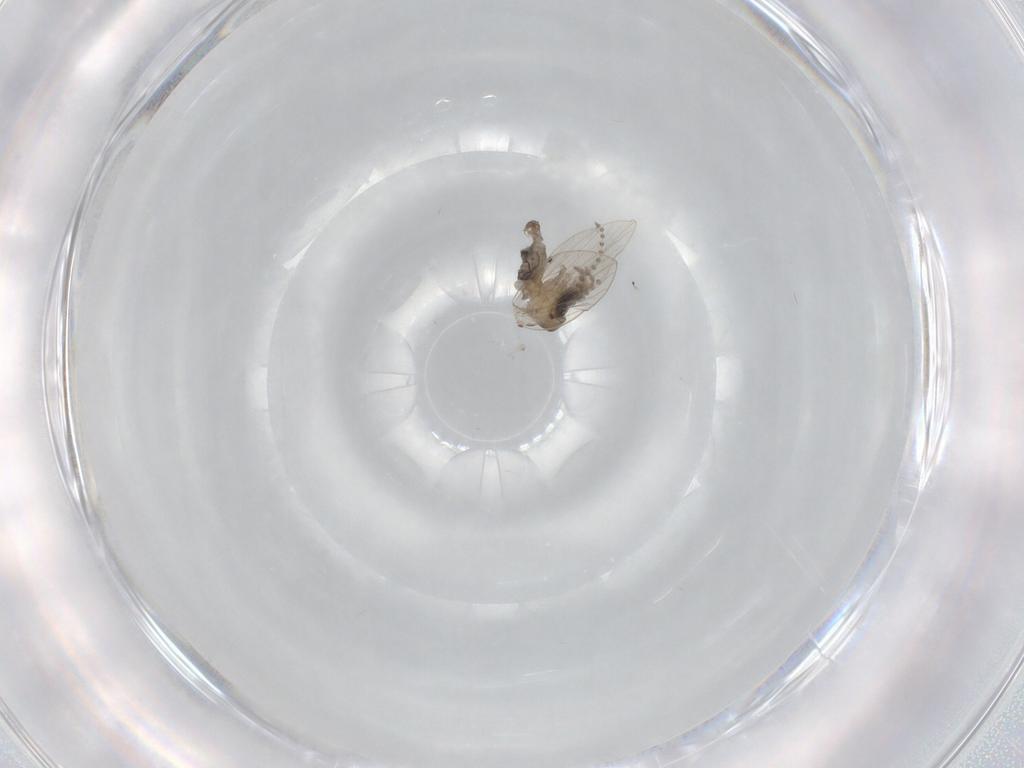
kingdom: Animalia
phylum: Arthropoda
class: Insecta
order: Diptera
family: Psychodidae
